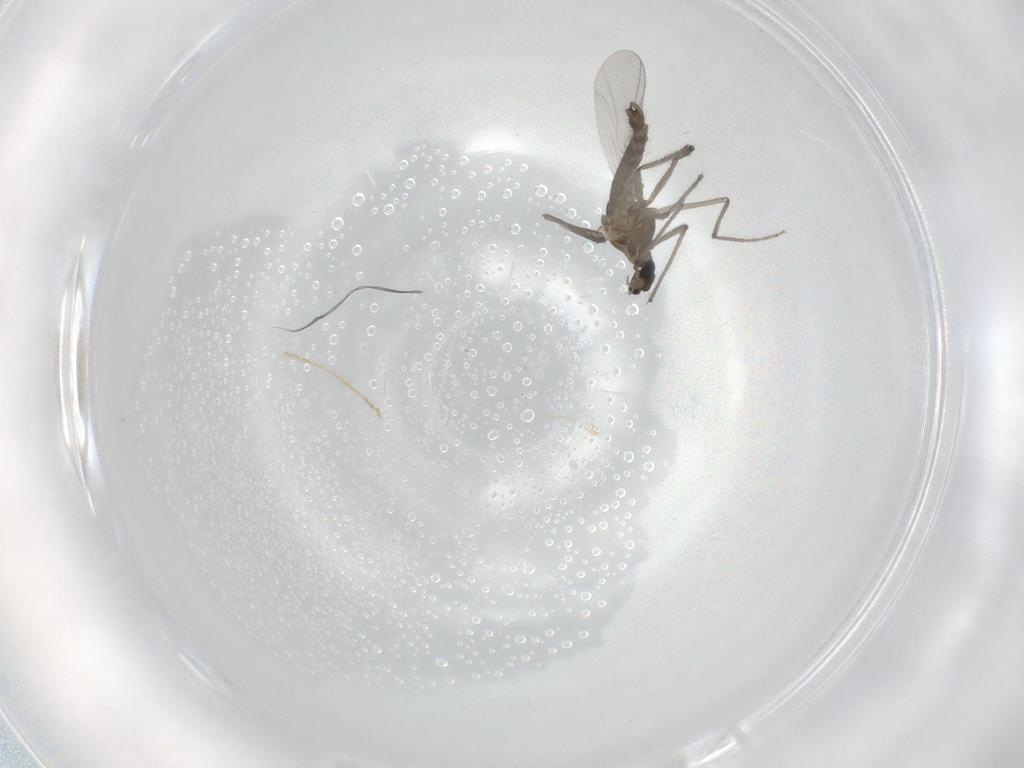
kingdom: Animalia
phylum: Arthropoda
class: Insecta
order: Diptera
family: Chironomidae
